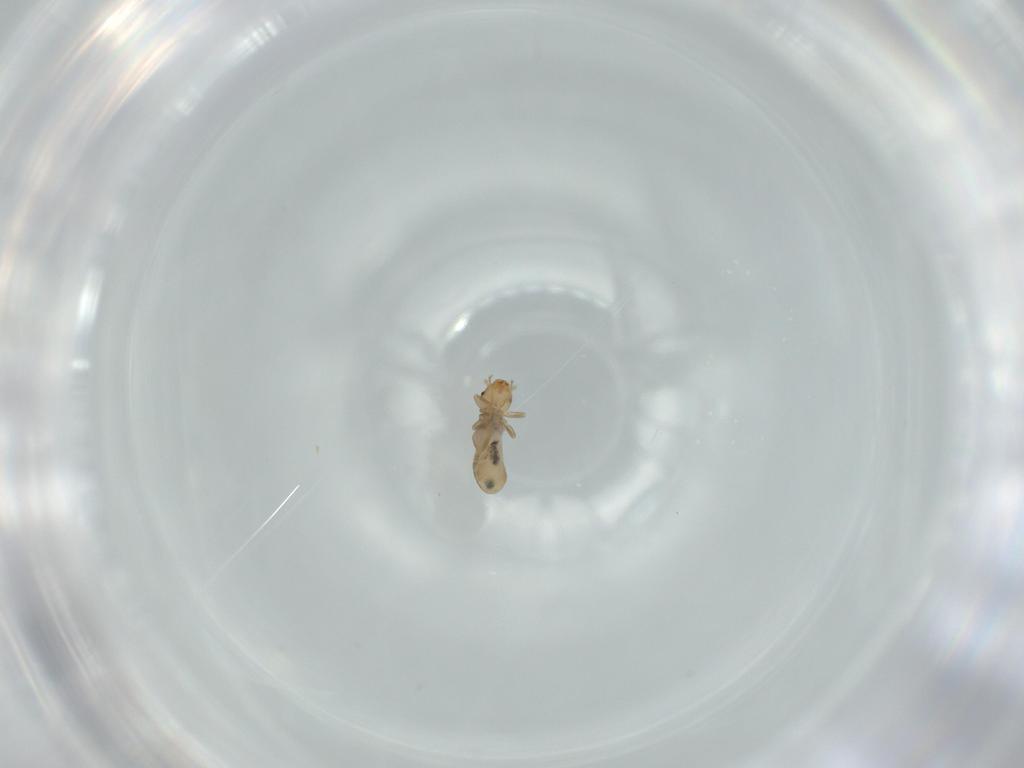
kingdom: Animalia
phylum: Arthropoda
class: Insecta
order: Psocodea
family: Liposcelididae
